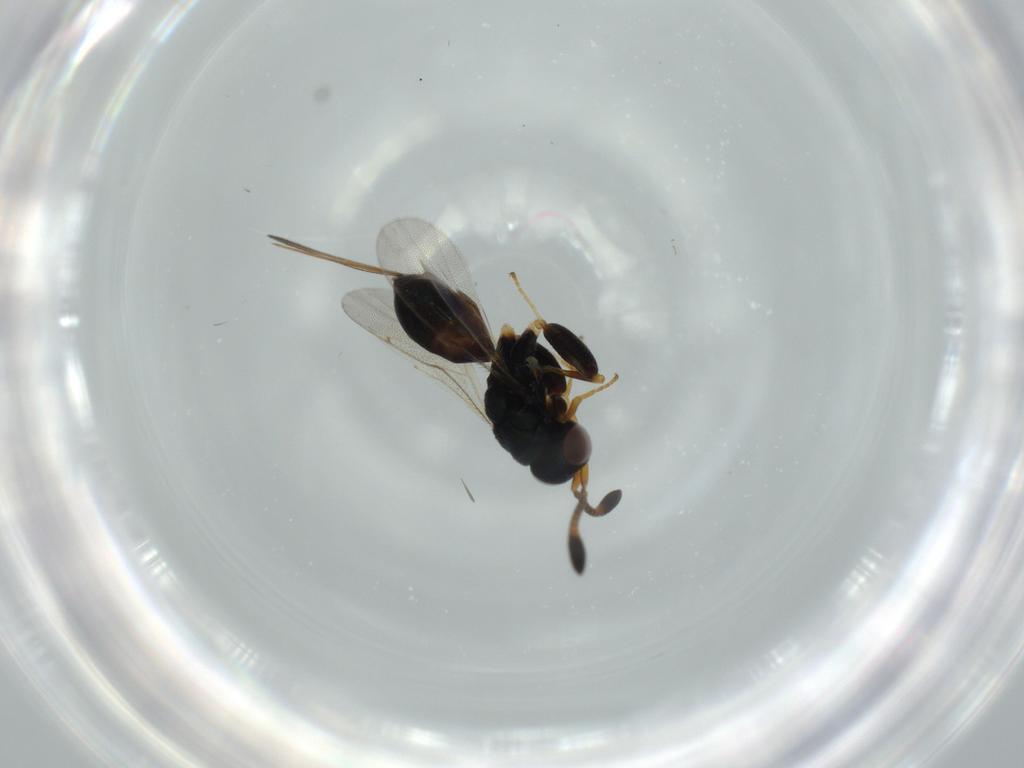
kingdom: Animalia
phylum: Arthropoda
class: Insecta
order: Hymenoptera
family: Torymidae
